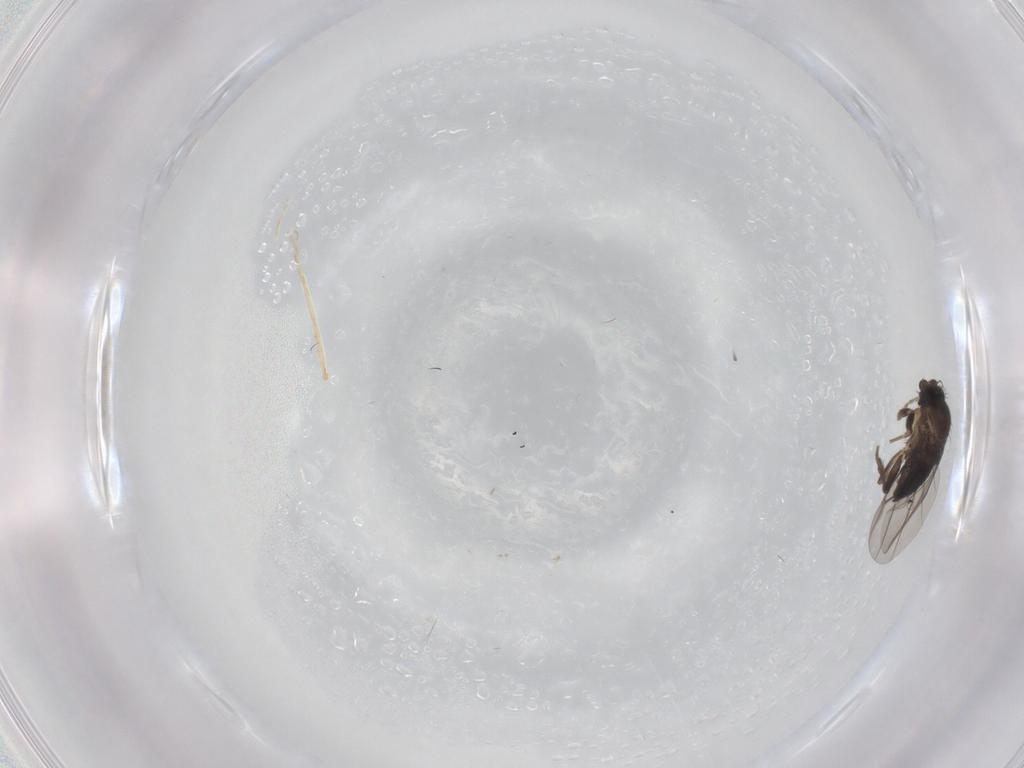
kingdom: Animalia
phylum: Arthropoda
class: Insecta
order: Diptera
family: Phoridae
